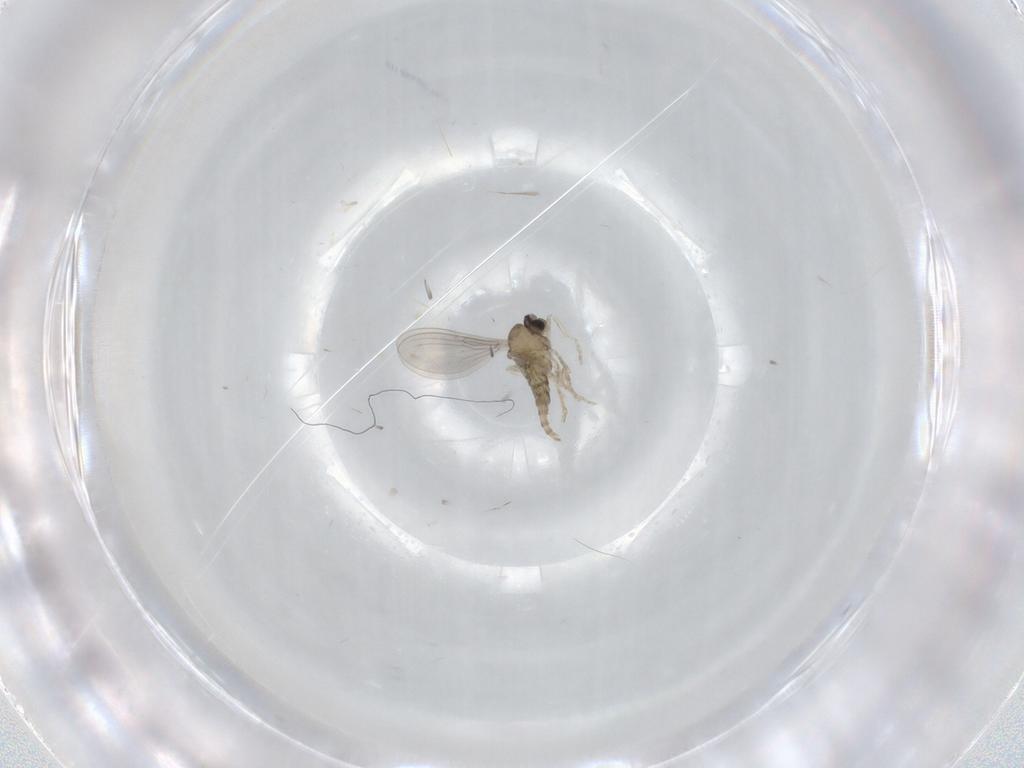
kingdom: Animalia
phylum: Arthropoda
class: Insecta
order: Diptera
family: Cecidomyiidae
